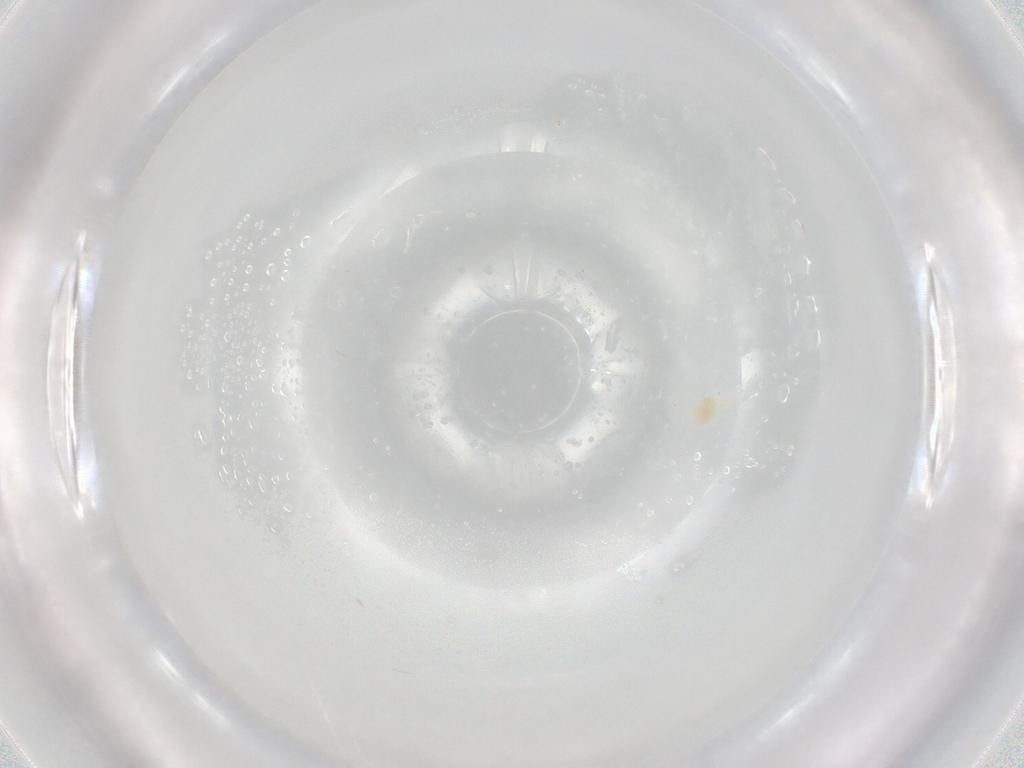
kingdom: Animalia
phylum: Arthropoda
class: Arachnida
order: Trombidiformes
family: Eupodidae
